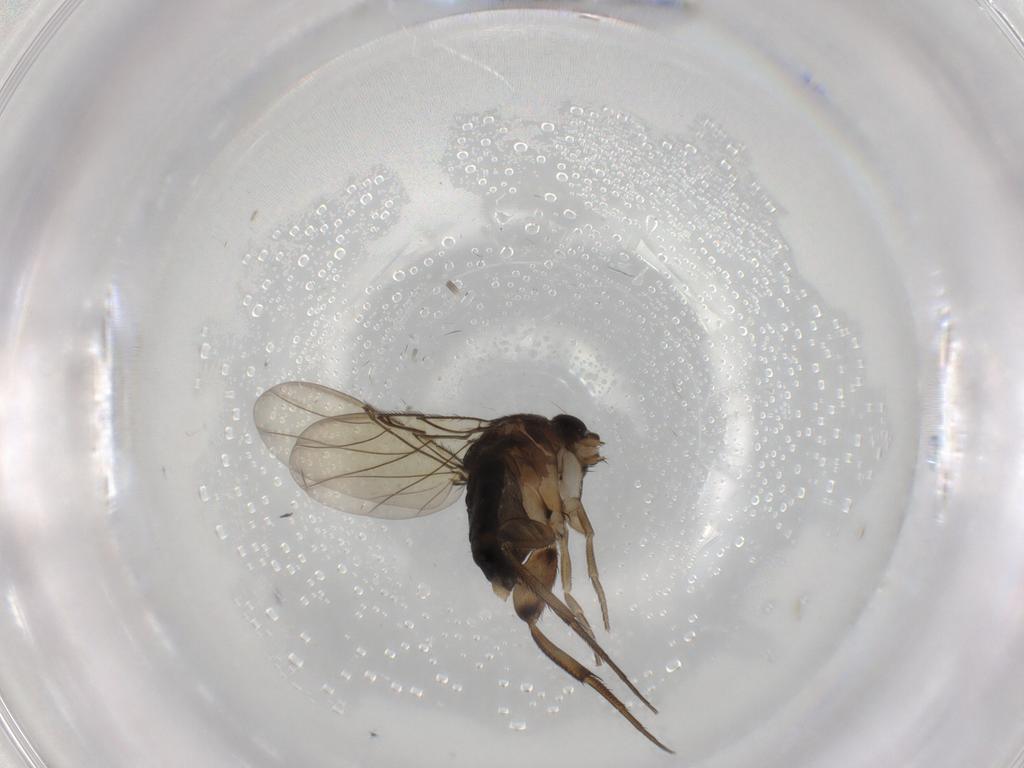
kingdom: Animalia
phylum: Arthropoda
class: Insecta
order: Diptera
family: Phoridae
